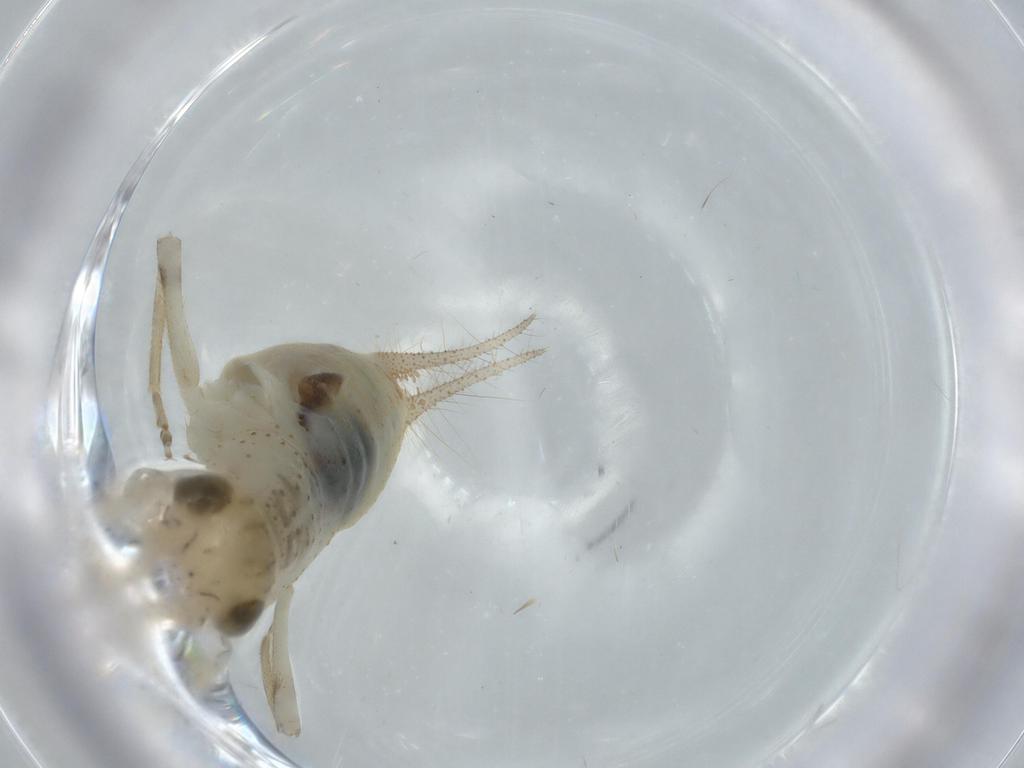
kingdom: Animalia
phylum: Arthropoda
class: Insecta
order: Orthoptera
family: Trigonidiidae
